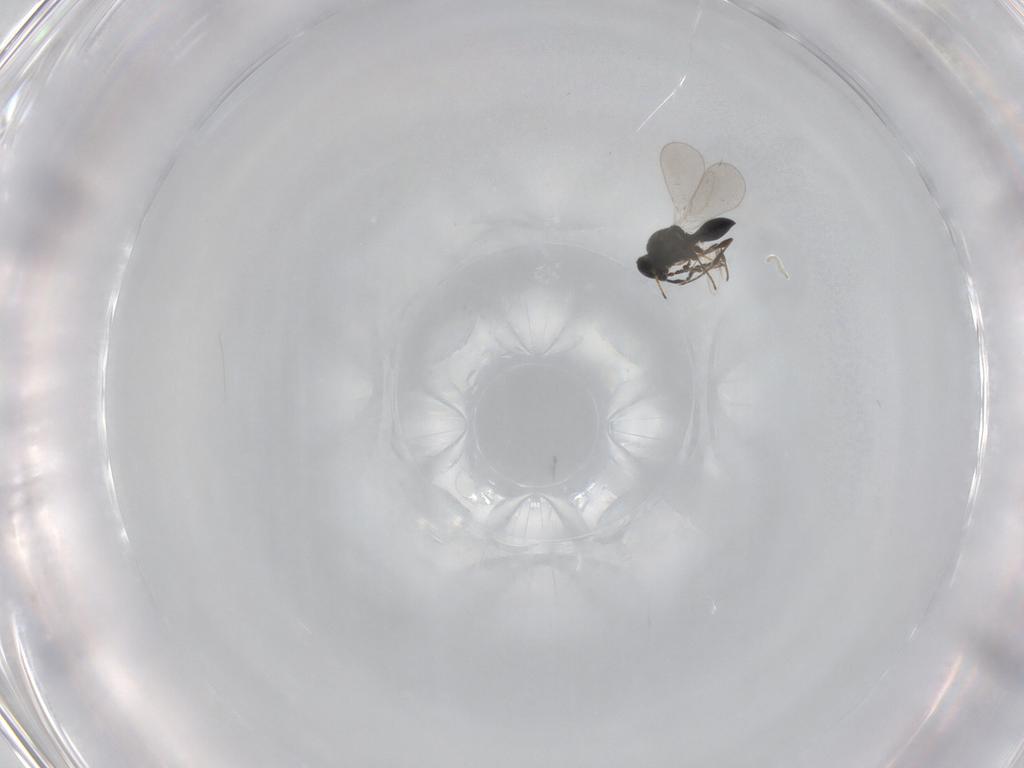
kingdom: Animalia
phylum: Arthropoda
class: Insecta
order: Hymenoptera
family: Platygastridae
